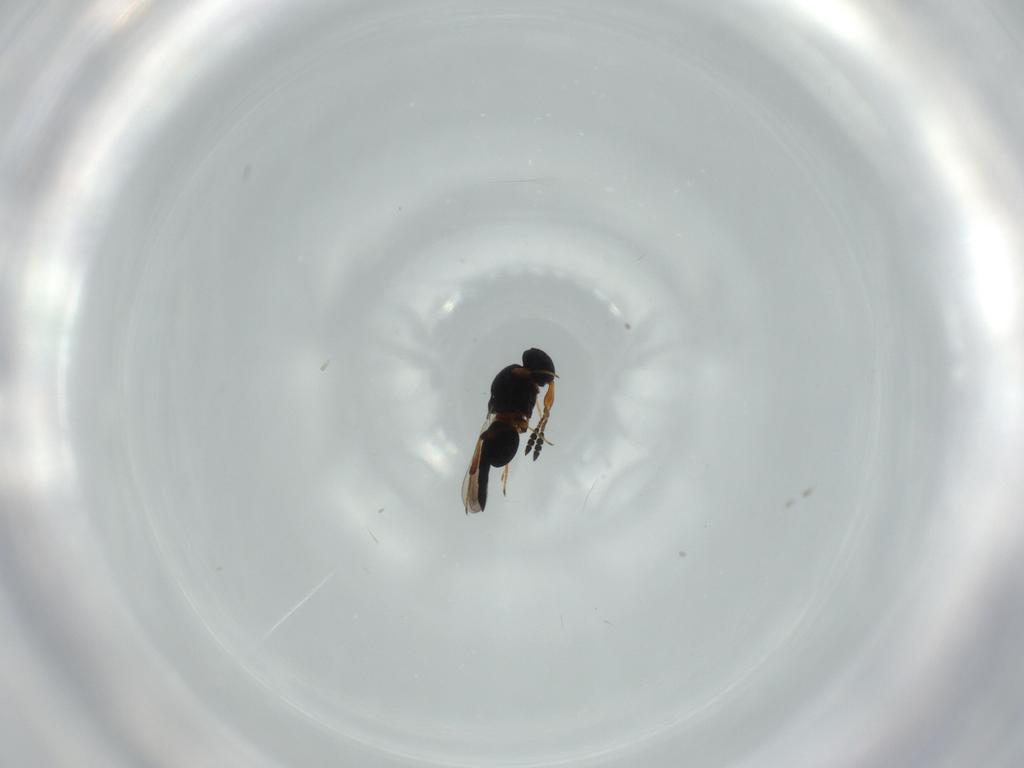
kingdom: Animalia
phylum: Arthropoda
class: Insecta
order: Hymenoptera
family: Platygastridae
